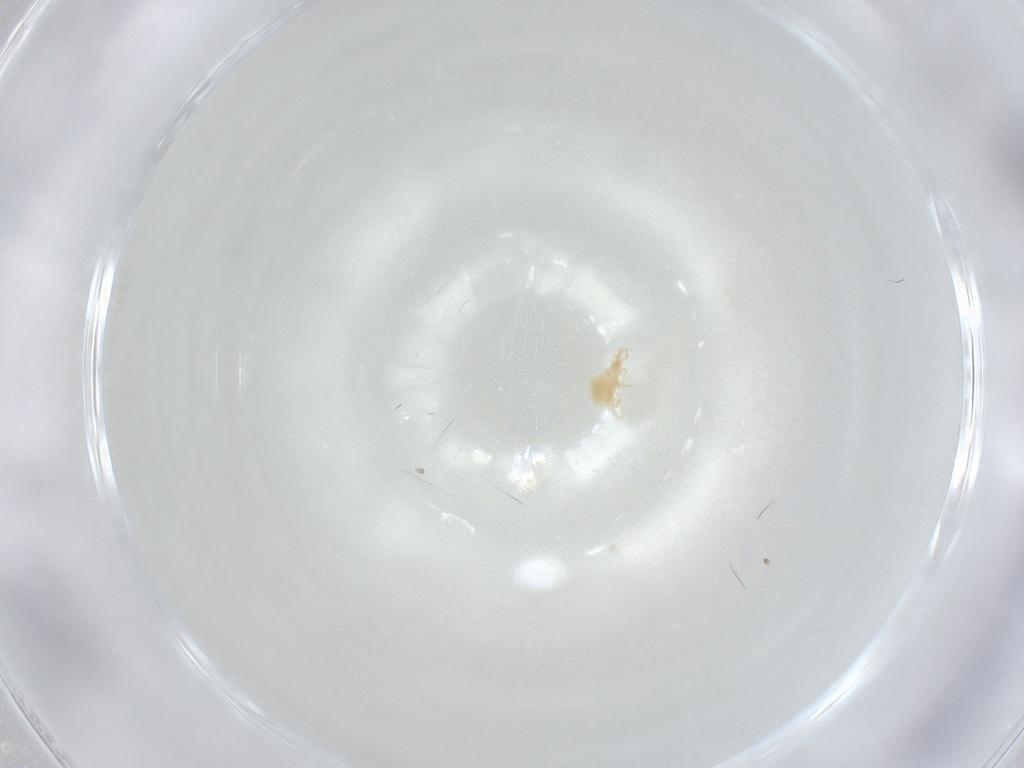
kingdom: Animalia
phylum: Arthropoda
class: Arachnida
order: Trombidiformes
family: Cunaxidae
